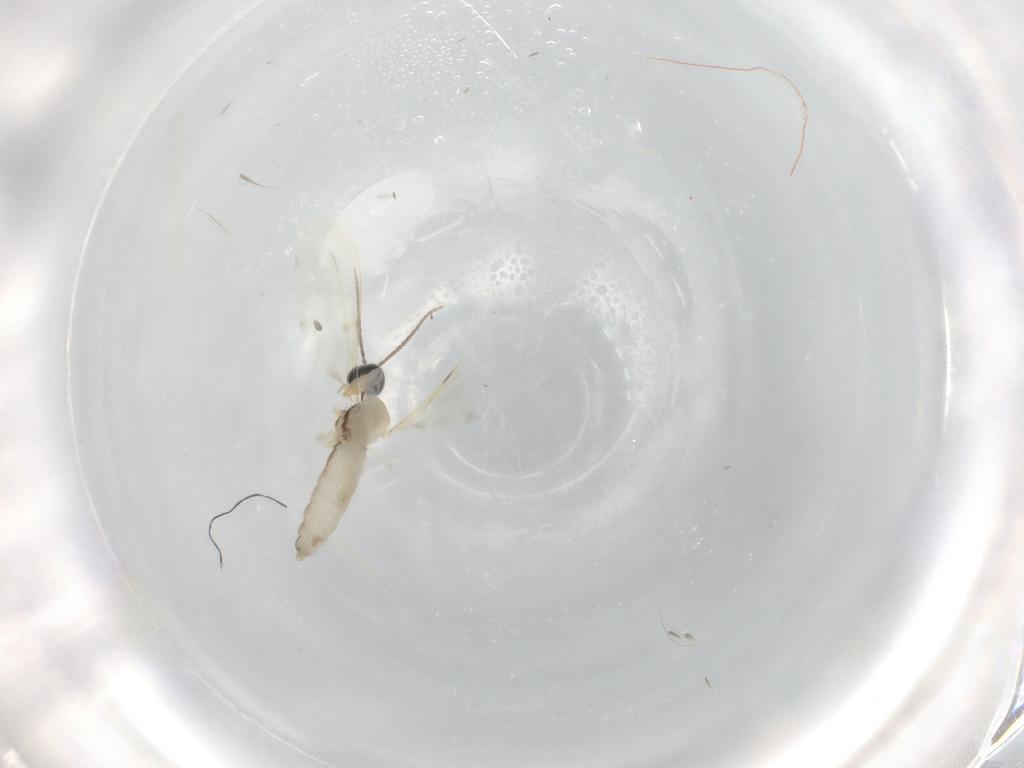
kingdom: Animalia
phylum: Arthropoda
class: Insecta
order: Diptera
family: Cecidomyiidae
